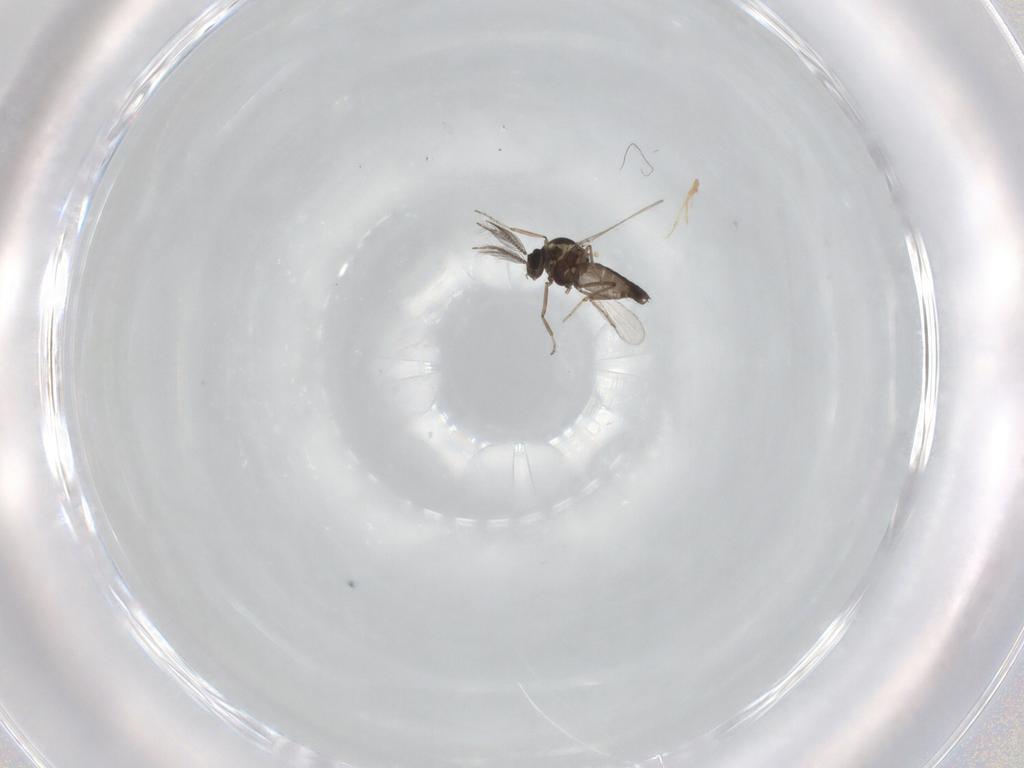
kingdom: Animalia
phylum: Arthropoda
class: Insecta
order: Diptera
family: Ceratopogonidae
